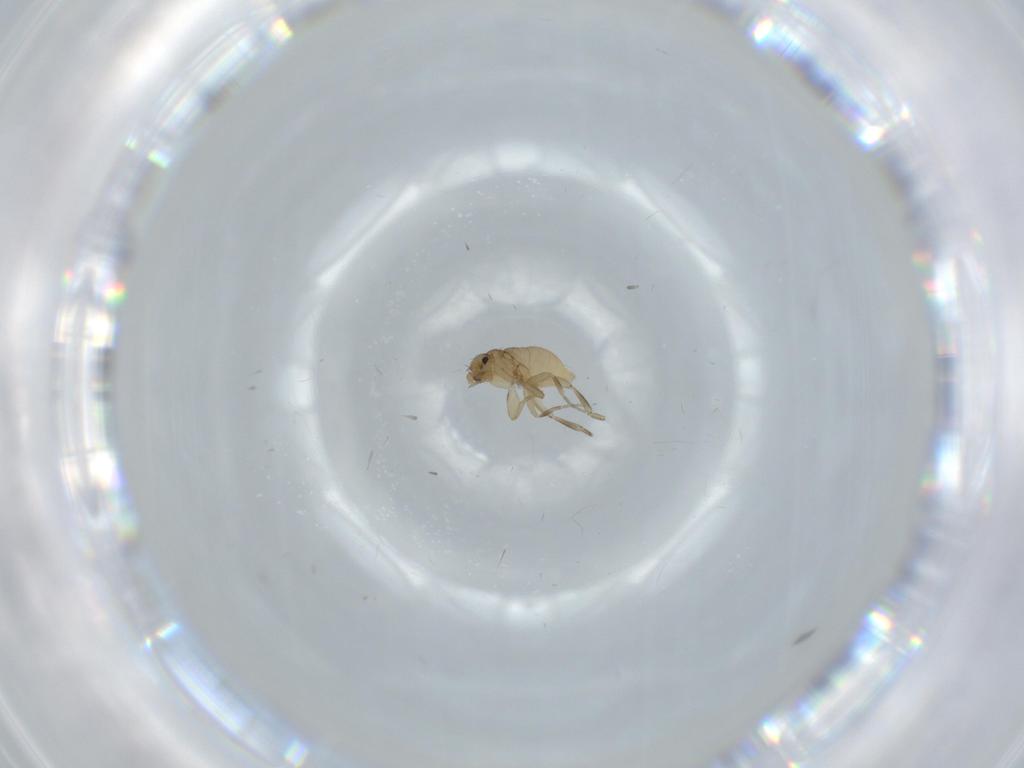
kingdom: Animalia
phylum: Arthropoda
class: Insecta
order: Diptera
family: Phoridae
